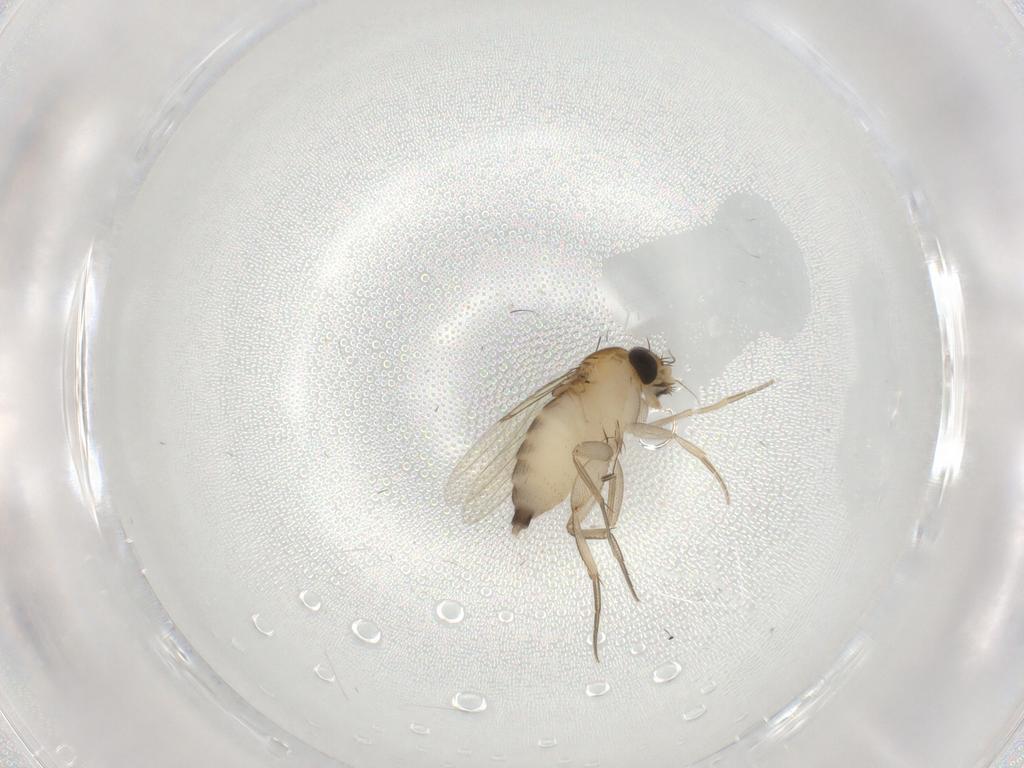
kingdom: Animalia
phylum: Arthropoda
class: Insecta
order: Diptera
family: Phoridae
